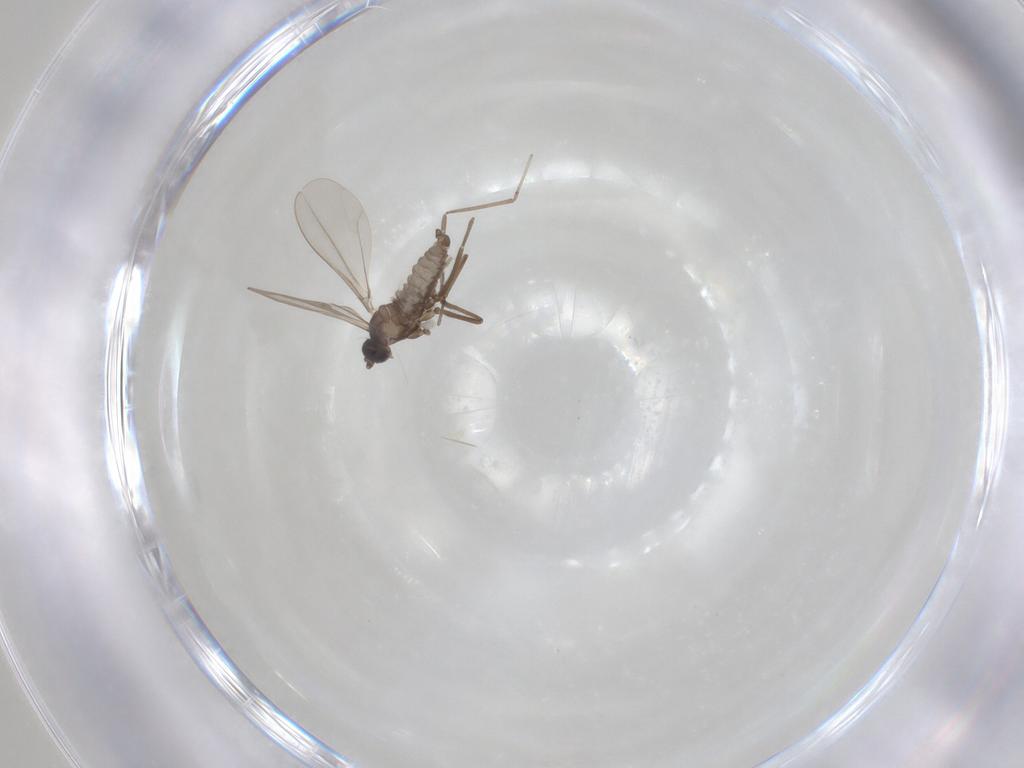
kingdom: Animalia
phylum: Arthropoda
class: Insecta
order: Diptera
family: Cecidomyiidae
